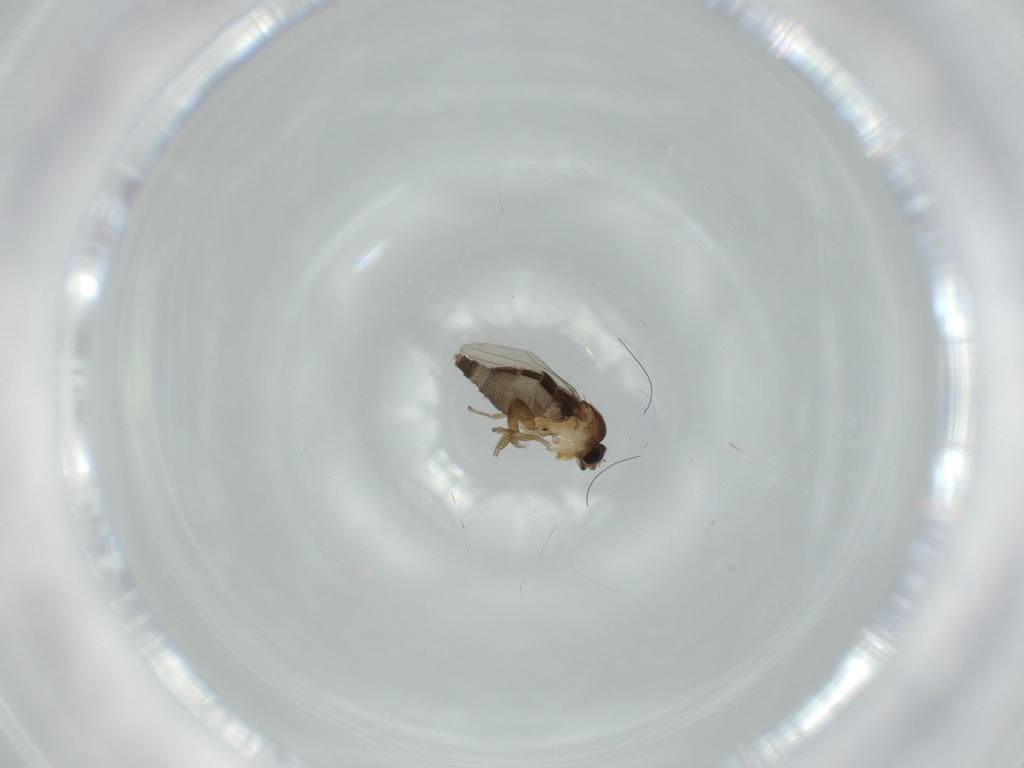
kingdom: Animalia
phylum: Arthropoda
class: Insecta
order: Diptera
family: Phoridae
